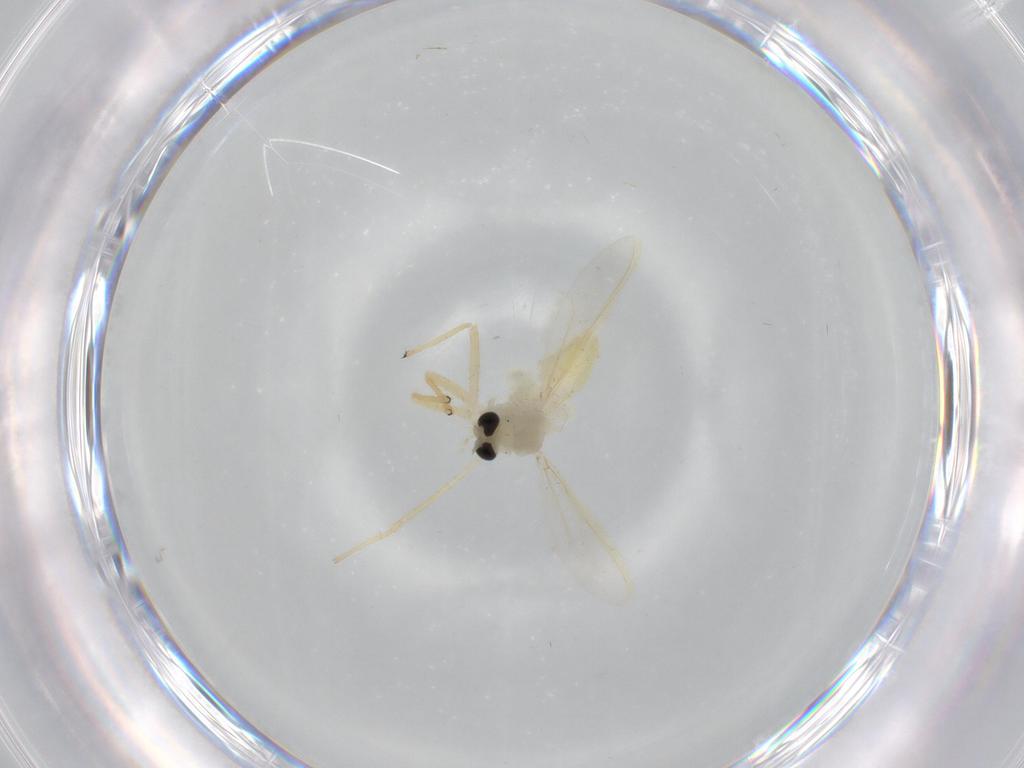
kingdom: Animalia
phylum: Arthropoda
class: Insecta
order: Diptera
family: Chironomidae
